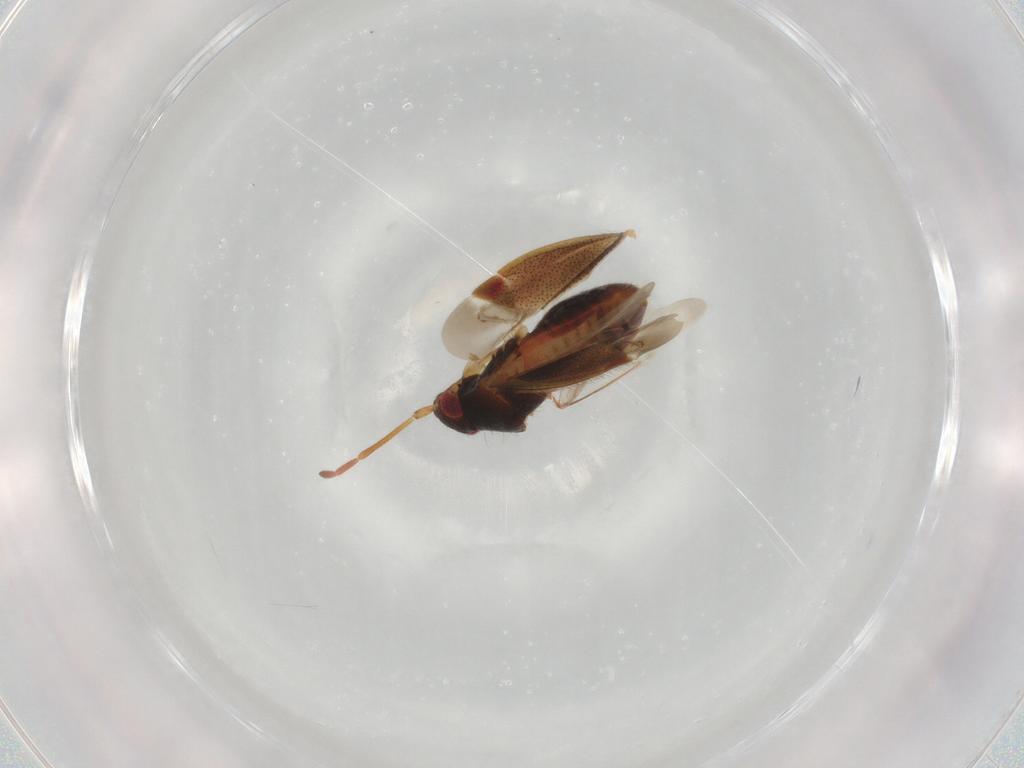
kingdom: Animalia
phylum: Arthropoda
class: Insecta
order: Hemiptera
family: Miridae
